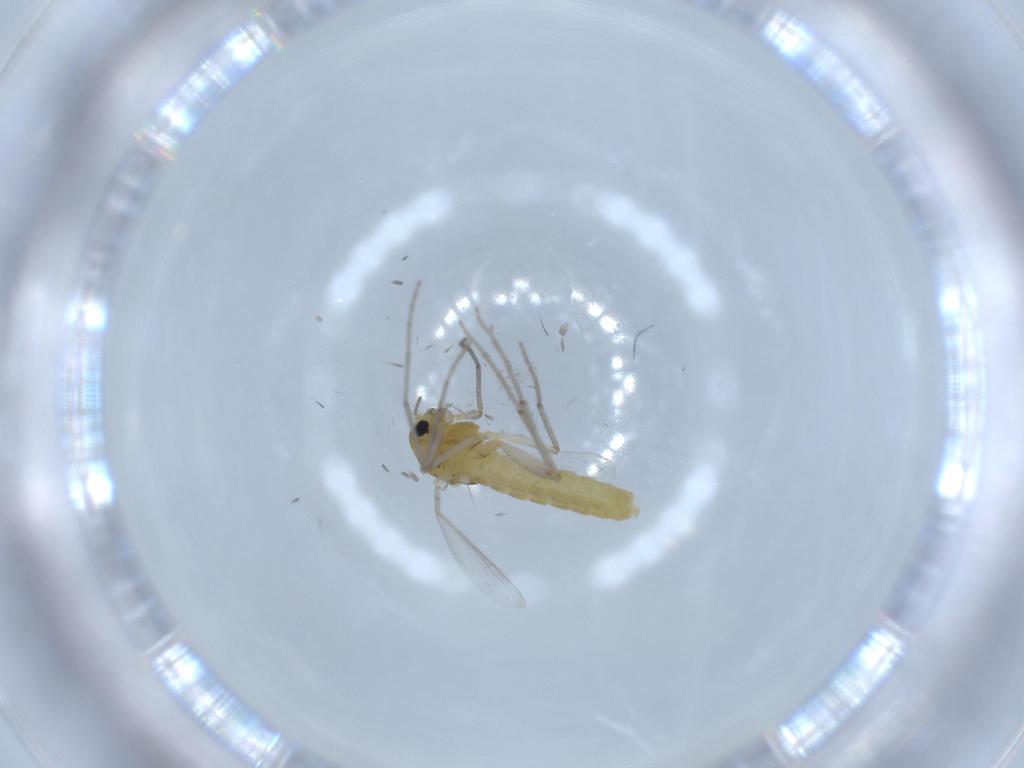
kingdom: Animalia
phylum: Arthropoda
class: Insecta
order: Diptera
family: Chironomidae
